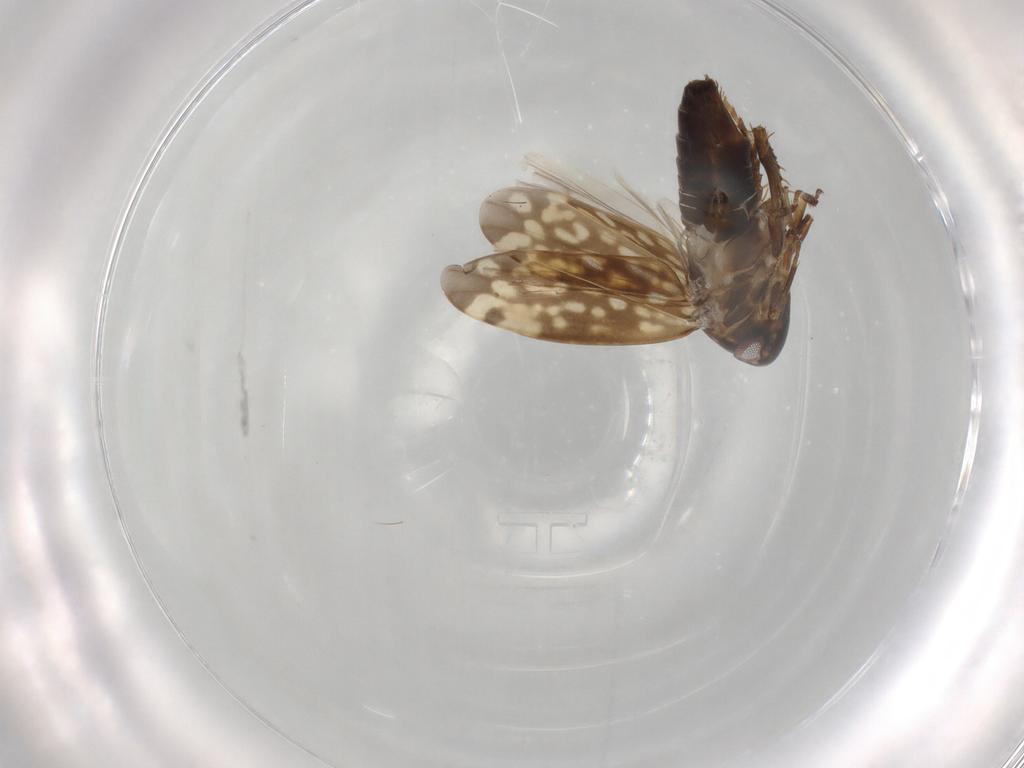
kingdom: Animalia
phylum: Arthropoda
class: Insecta
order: Hemiptera
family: Cicadellidae
